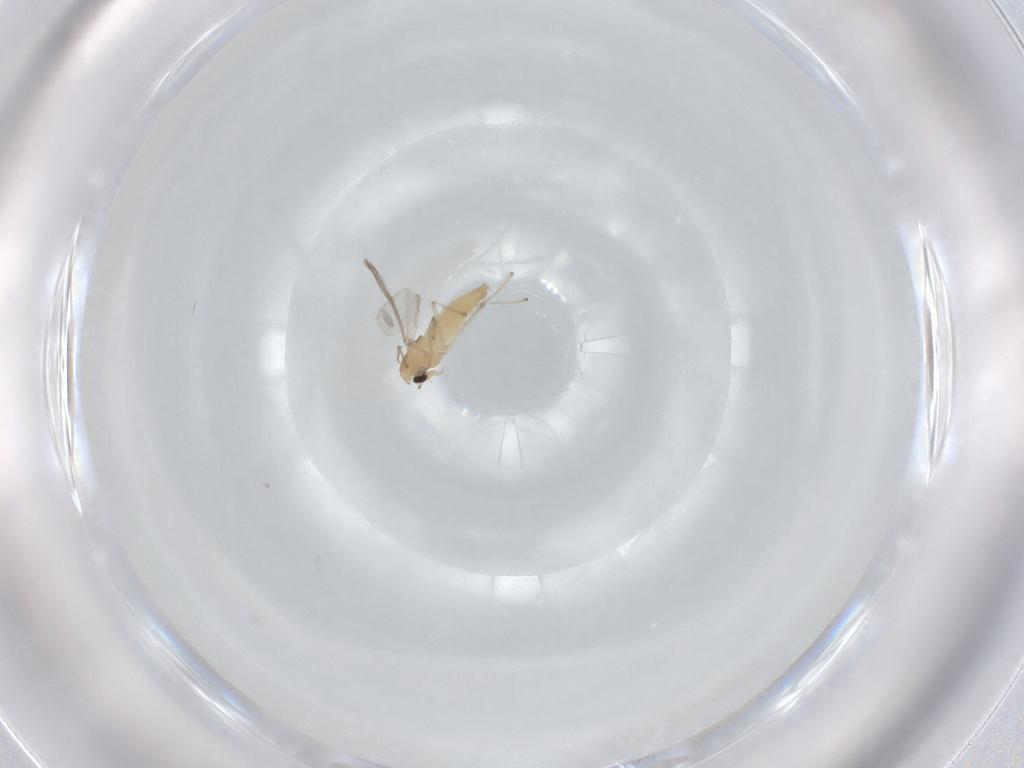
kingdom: Animalia
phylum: Arthropoda
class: Insecta
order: Diptera
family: Chironomidae
